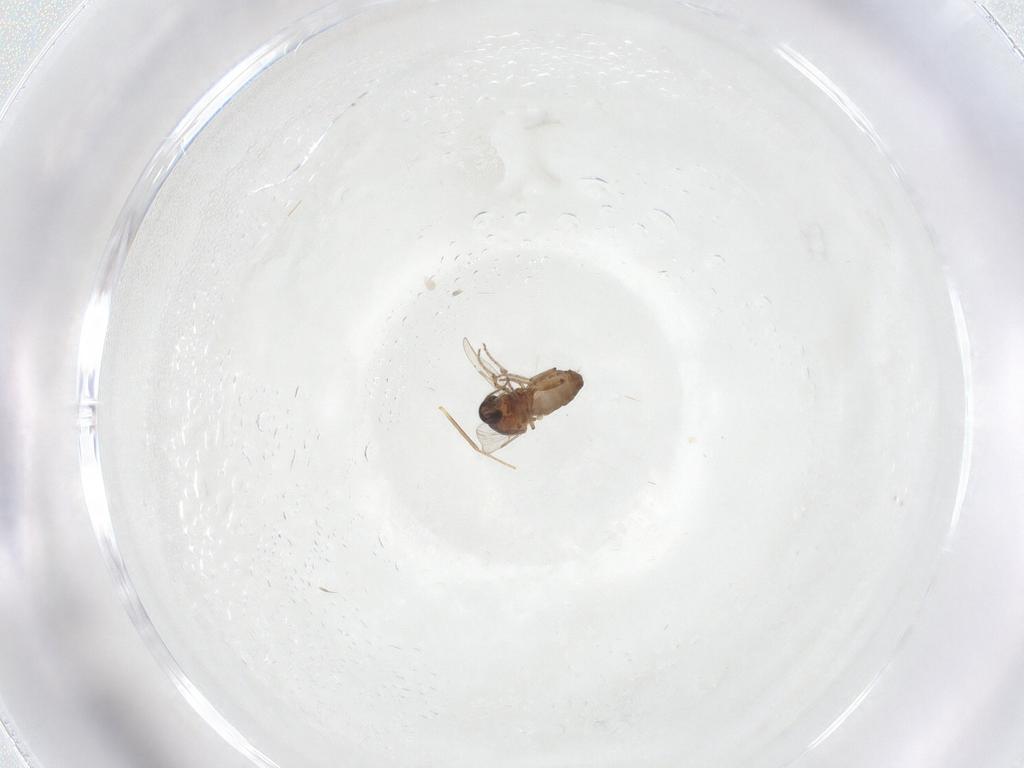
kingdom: Animalia
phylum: Arthropoda
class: Insecta
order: Diptera
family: Ceratopogonidae
